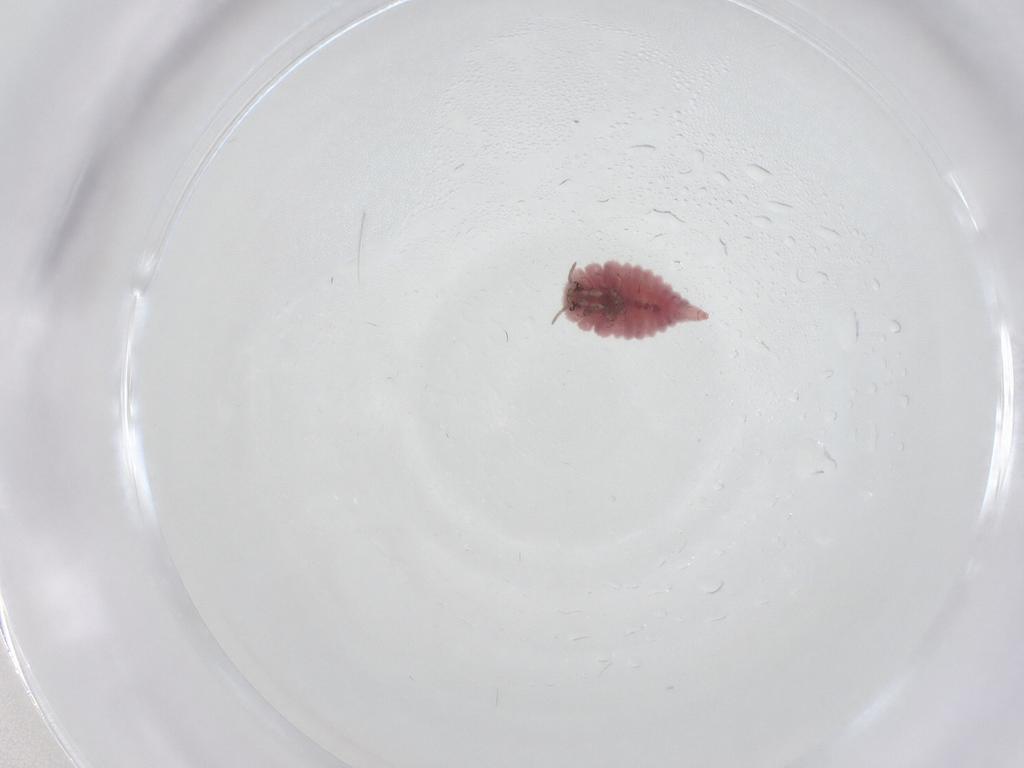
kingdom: Animalia
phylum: Arthropoda
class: Insecta
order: Neuroptera
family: Coniopterygidae
